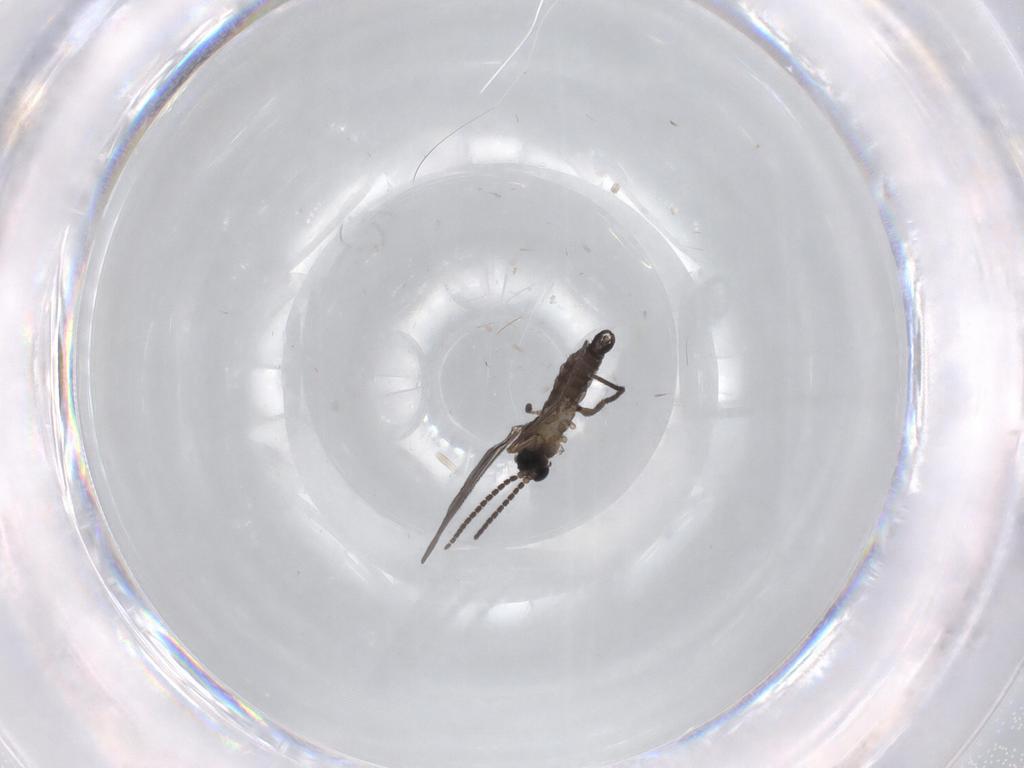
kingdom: Animalia
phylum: Arthropoda
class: Insecta
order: Diptera
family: Sciaridae
